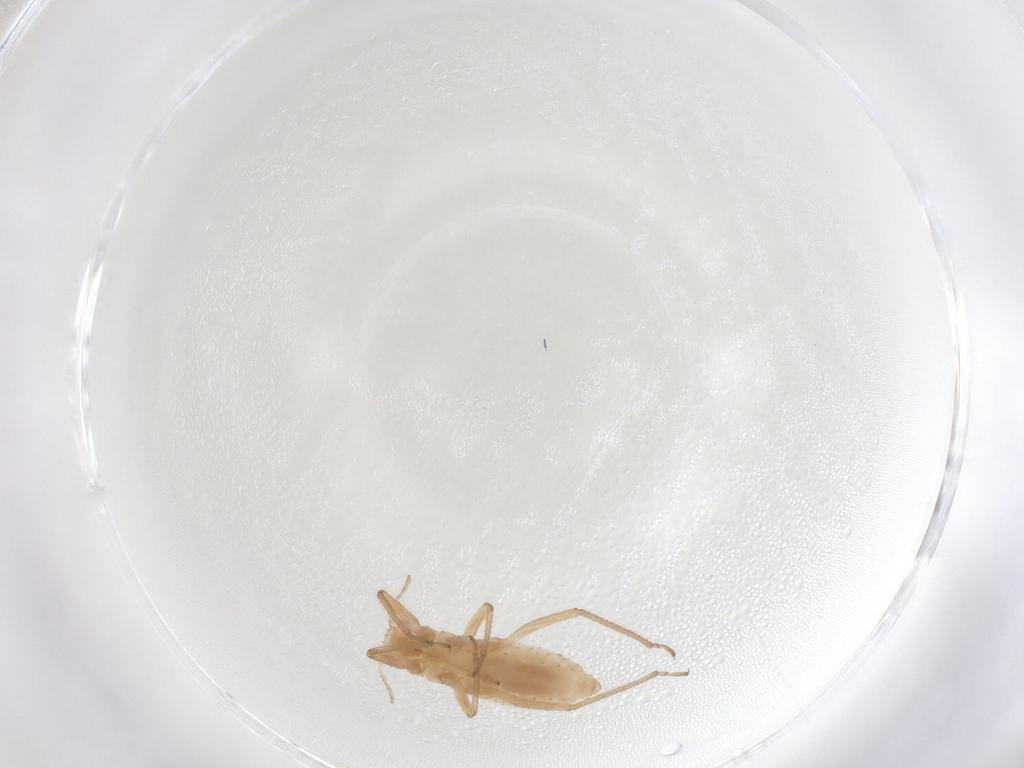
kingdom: Animalia
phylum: Arthropoda
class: Insecta
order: Hemiptera
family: Lachnidae
